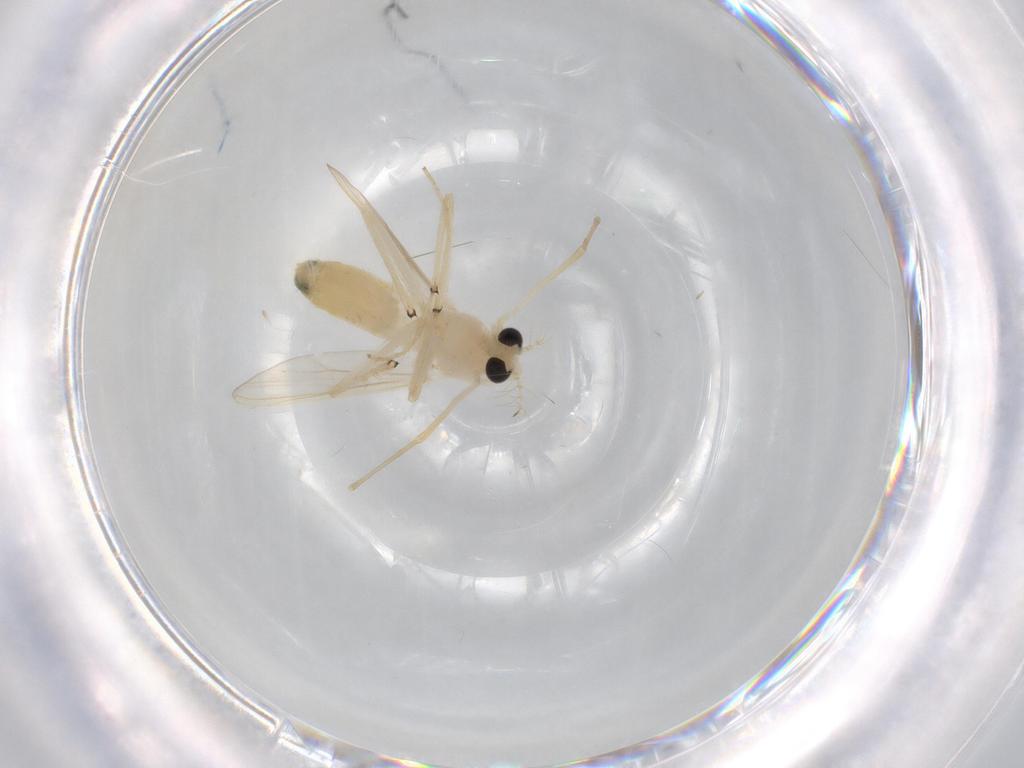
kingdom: Animalia
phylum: Arthropoda
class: Insecta
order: Diptera
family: Chironomidae
